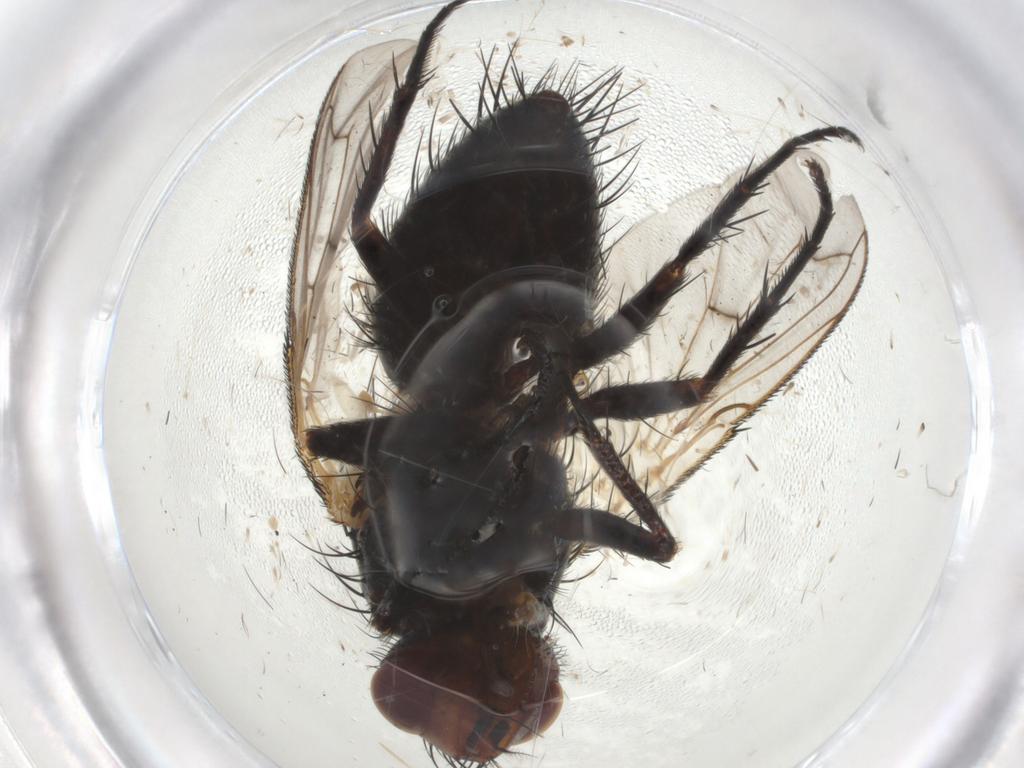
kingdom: Animalia
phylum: Arthropoda
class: Insecta
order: Diptera
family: Tachinidae
